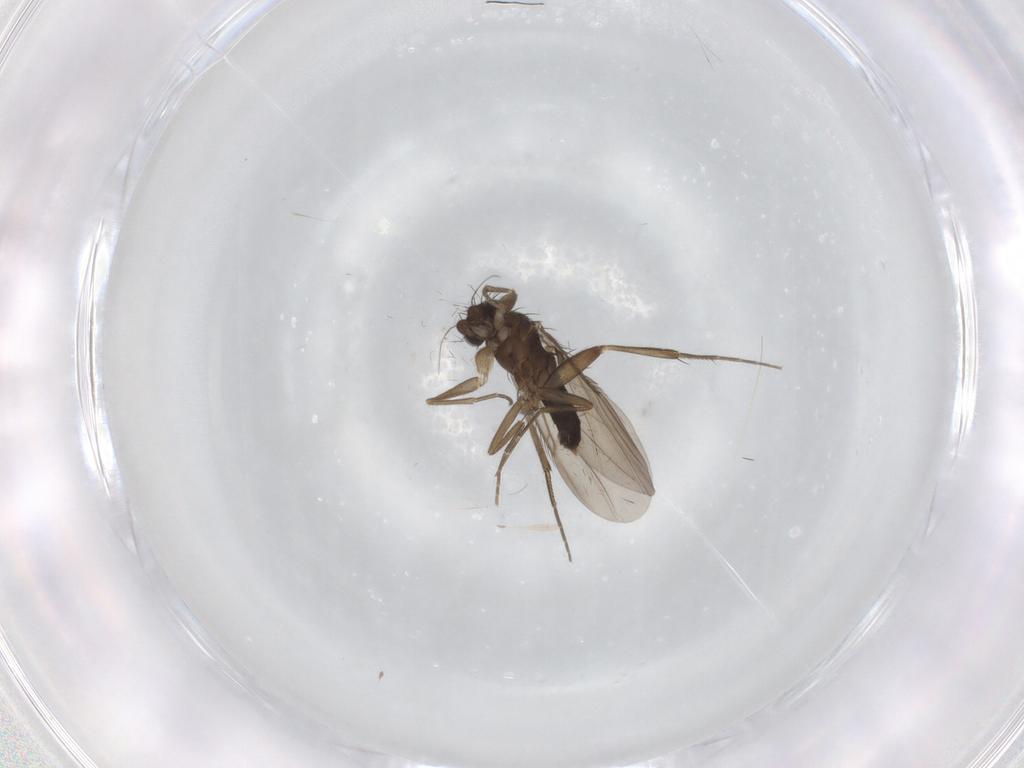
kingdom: Animalia
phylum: Arthropoda
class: Insecta
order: Diptera
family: Phoridae
